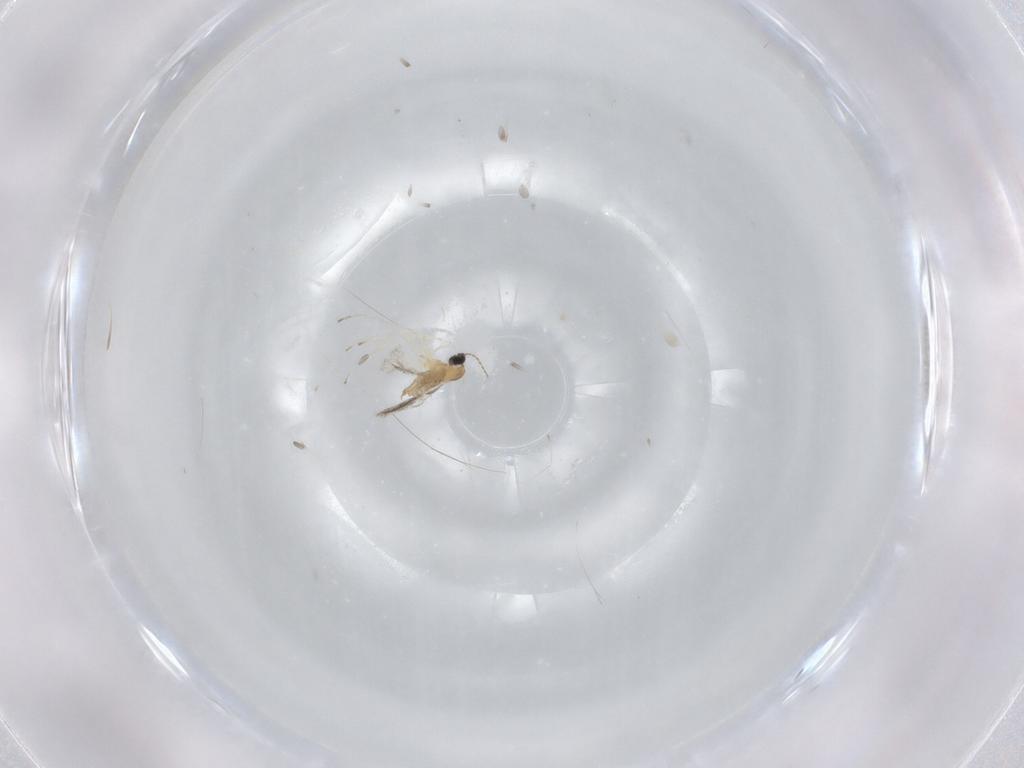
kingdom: Animalia
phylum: Arthropoda
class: Insecta
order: Diptera
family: Cecidomyiidae
